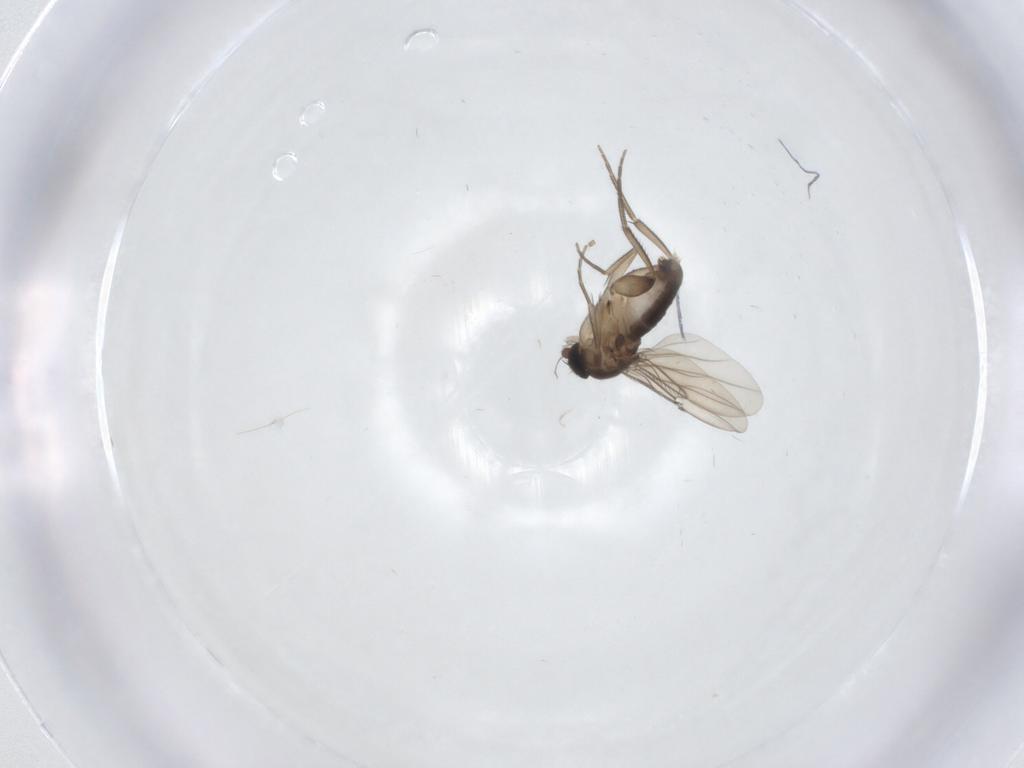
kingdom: Animalia
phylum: Arthropoda
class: Insecta
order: Diptera
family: Phoridae
